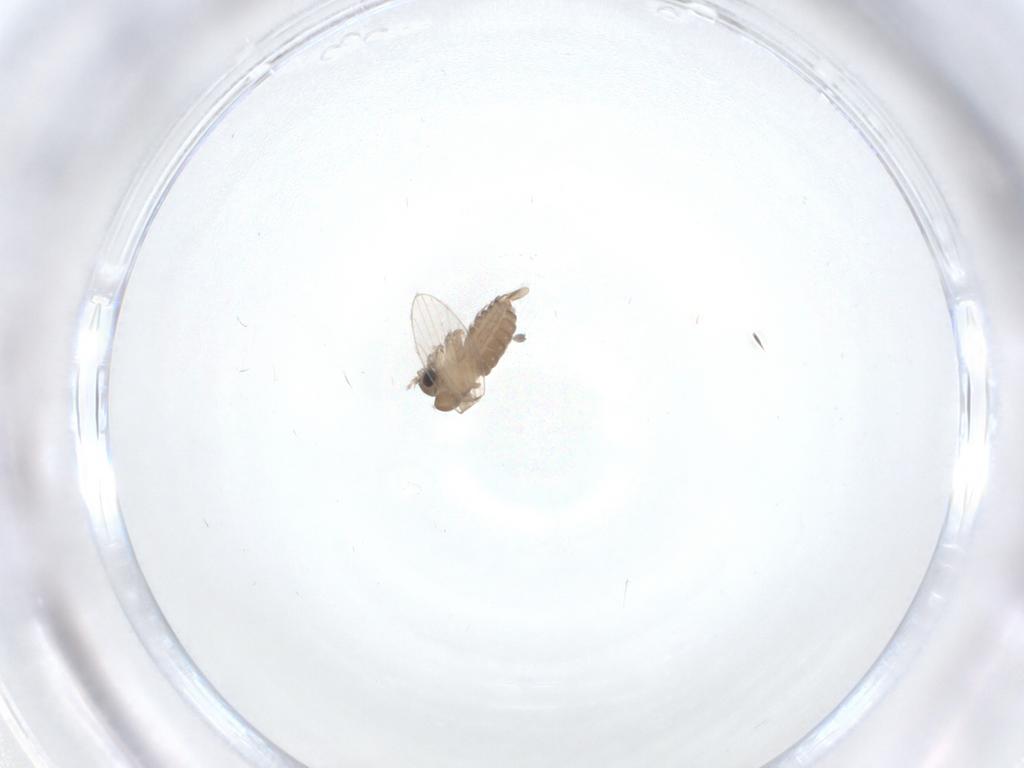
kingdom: Animalia
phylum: Arthropoda
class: Insecta
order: Diptera
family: Psychodidae
